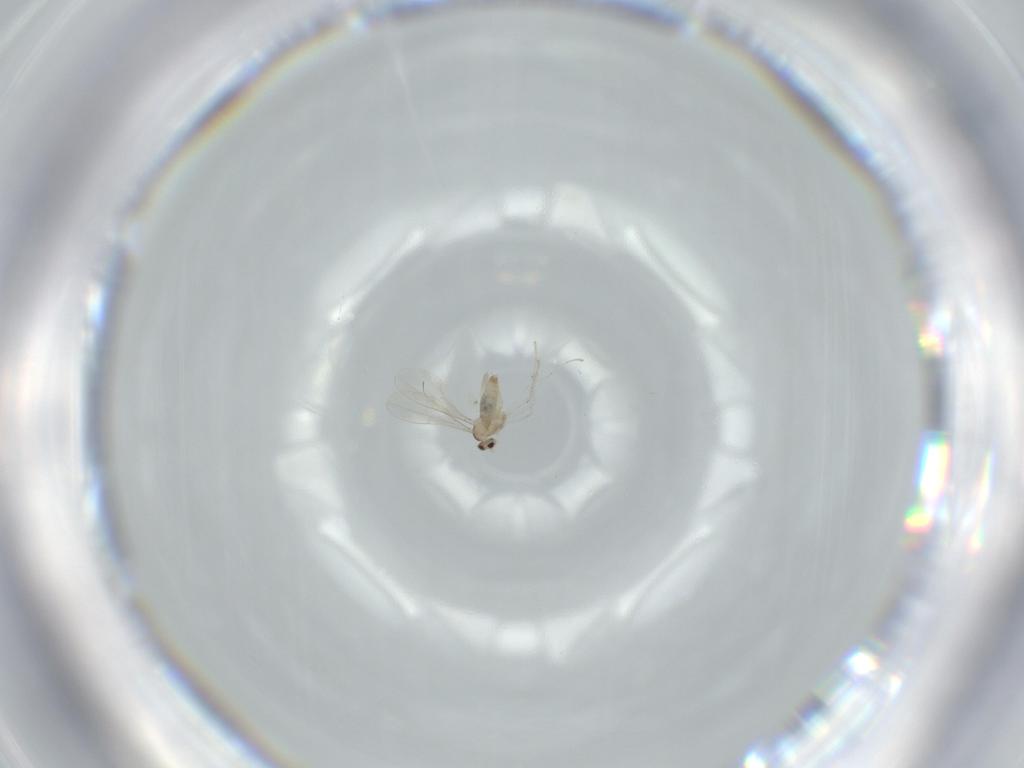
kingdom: Animalia
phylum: Arthropoda
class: Insecta
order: Diptera
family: Cecidomyiidae
